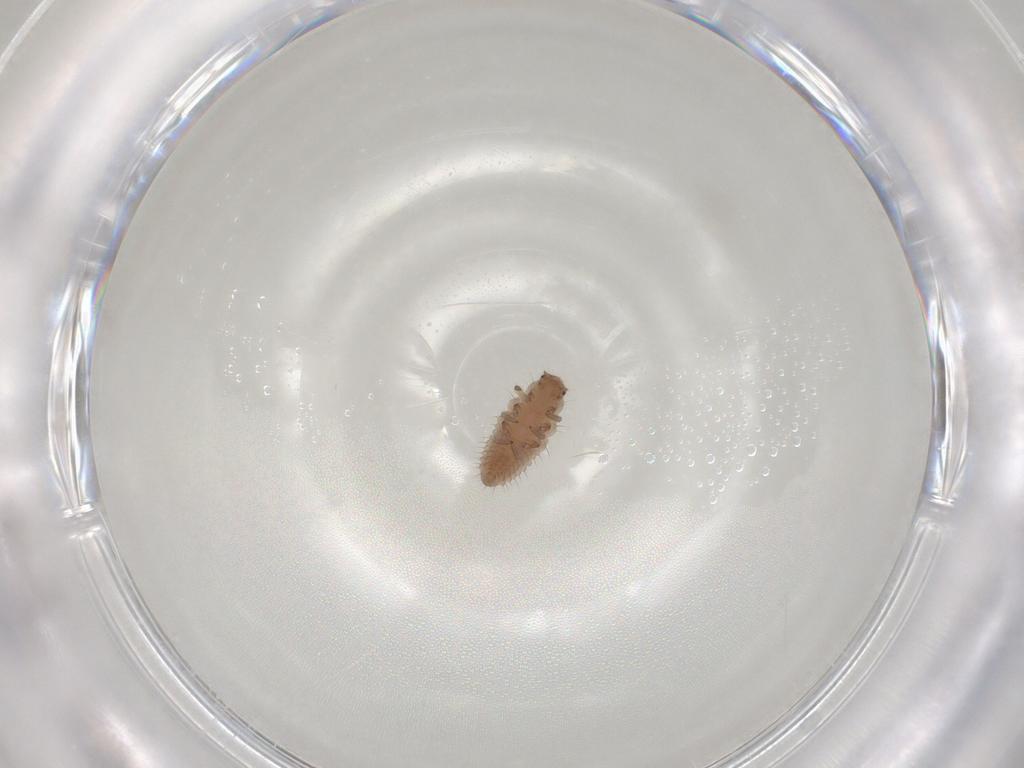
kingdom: Animalia
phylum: Arthropoda
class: Insecta
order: Coleoptera
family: Coccinellidae
